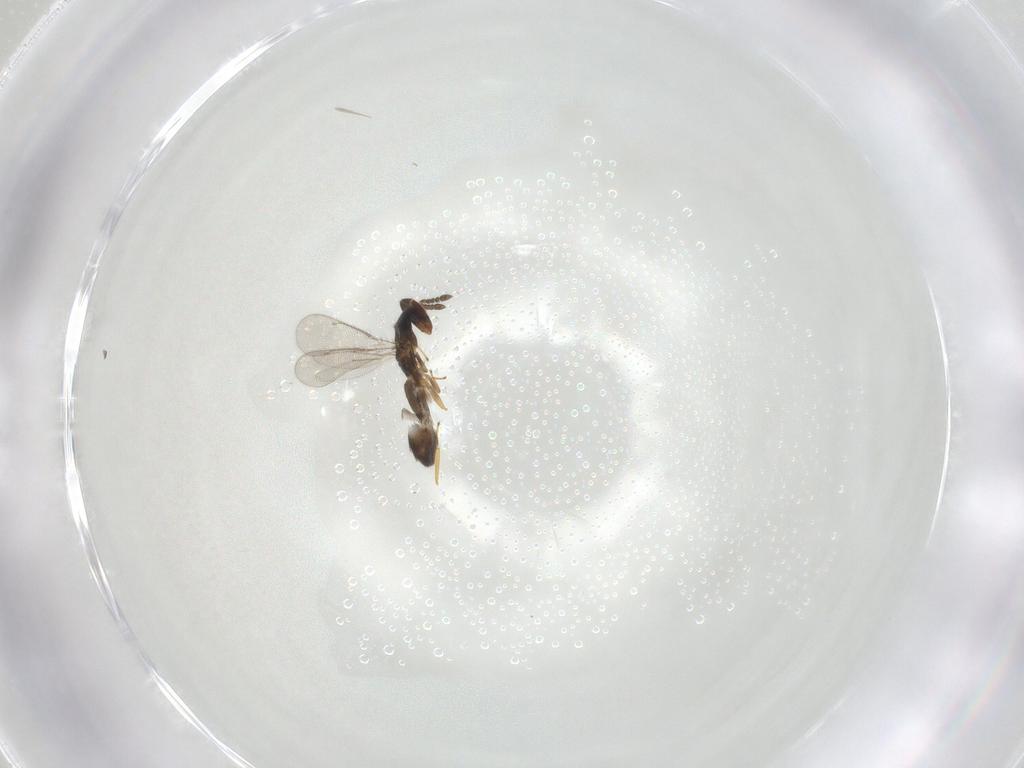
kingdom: Animalia
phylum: Arthropoda
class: Insecta
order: Hymenoptera
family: Eulophidae
